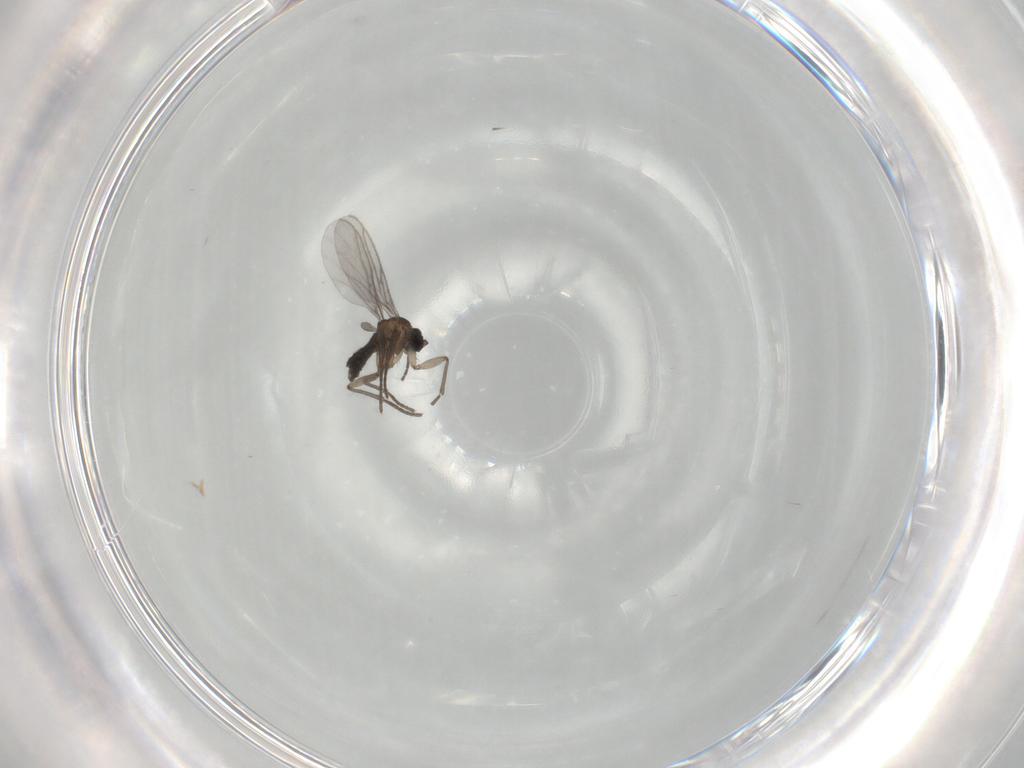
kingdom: Animalia
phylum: Arthropoda
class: Insecta
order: Diptera
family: Sciaridae
